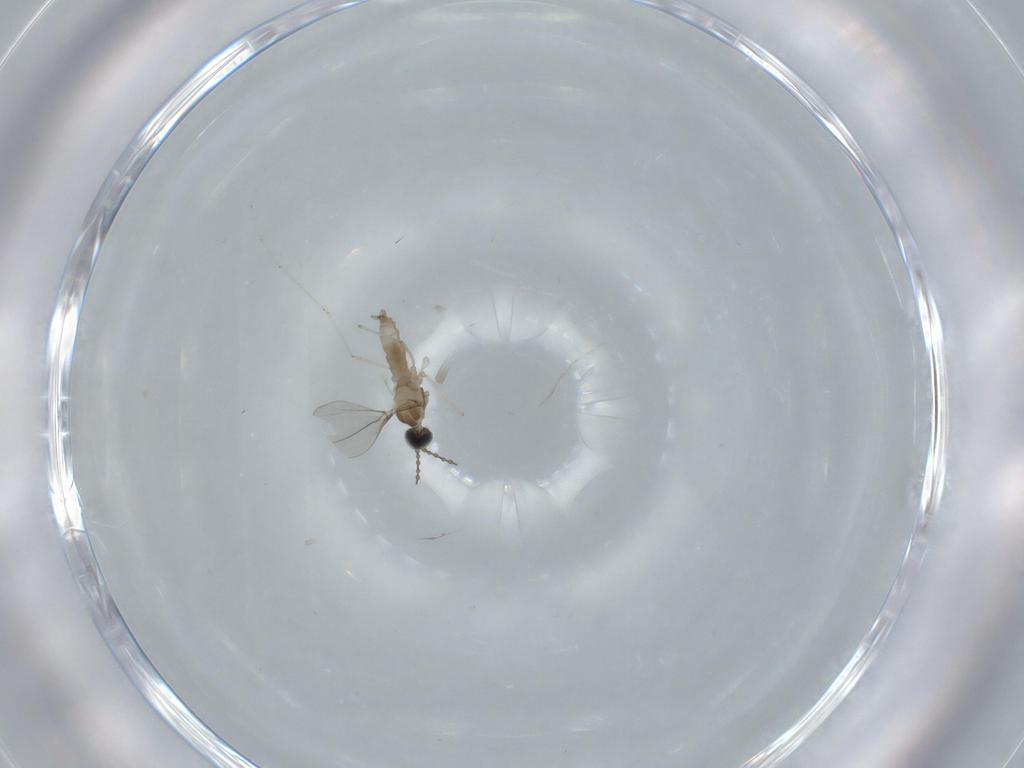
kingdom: Animalia
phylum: Arthropoda
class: Insecta
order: Diptera
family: Dolichopodidae
